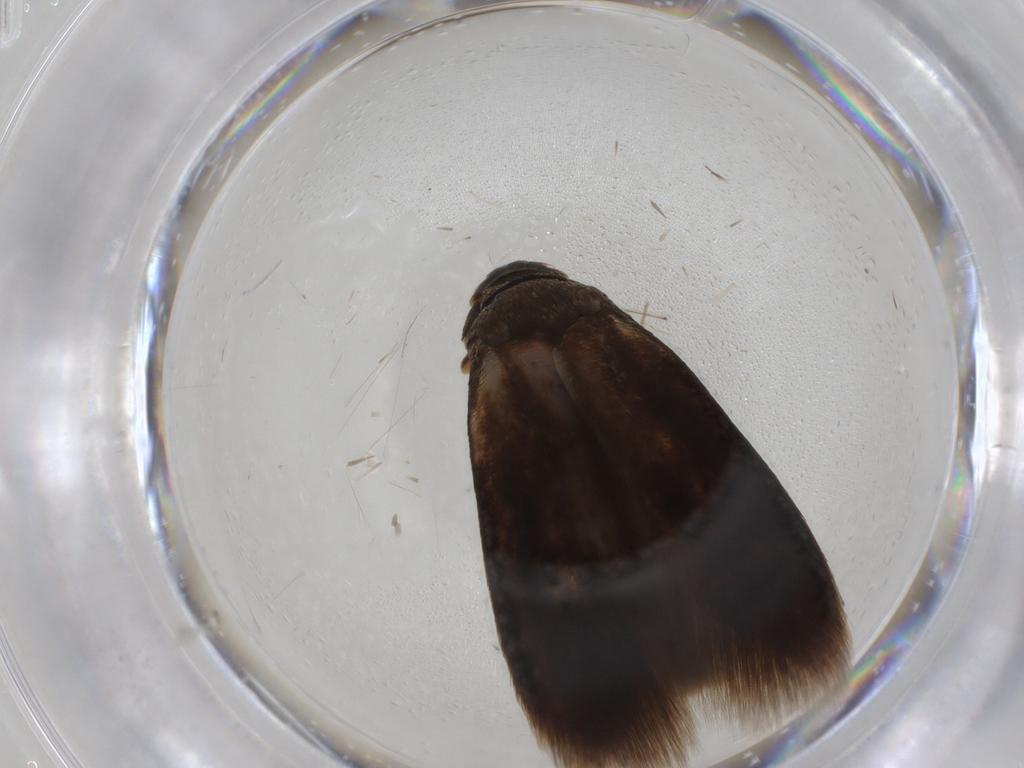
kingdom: Animalia
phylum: Arthropoda
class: Insecta
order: Lepidoptera
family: Tineidae
